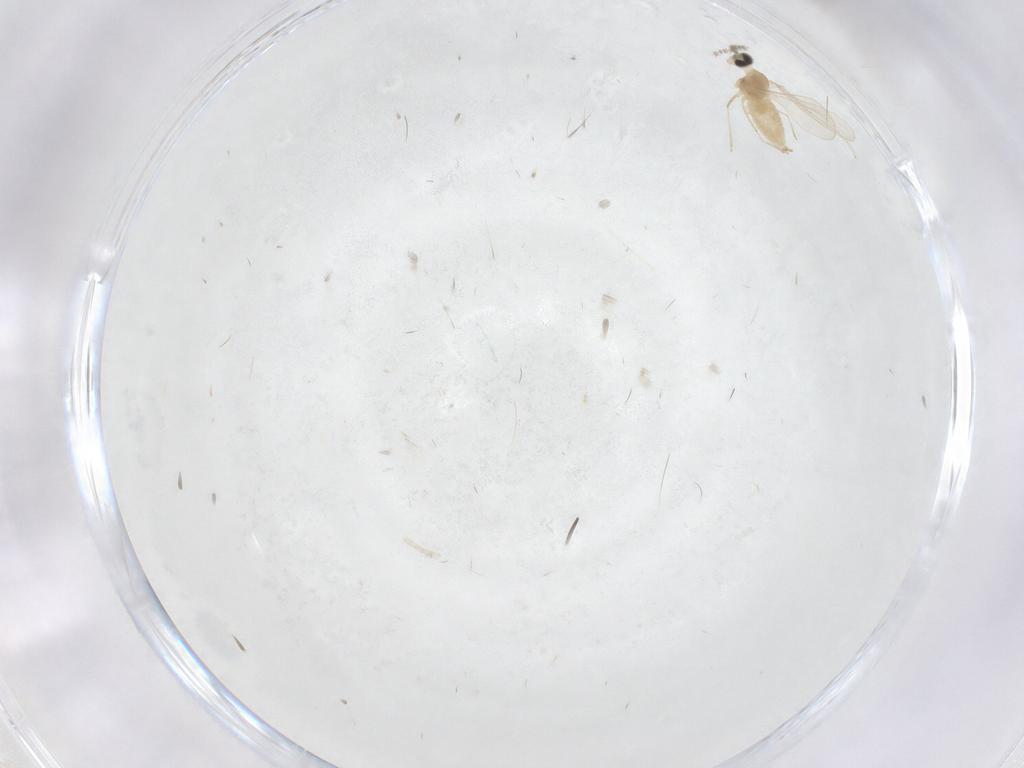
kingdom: Animalia
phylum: Arthropoda
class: Insecta
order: Diptera
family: Cecidomyiidae
